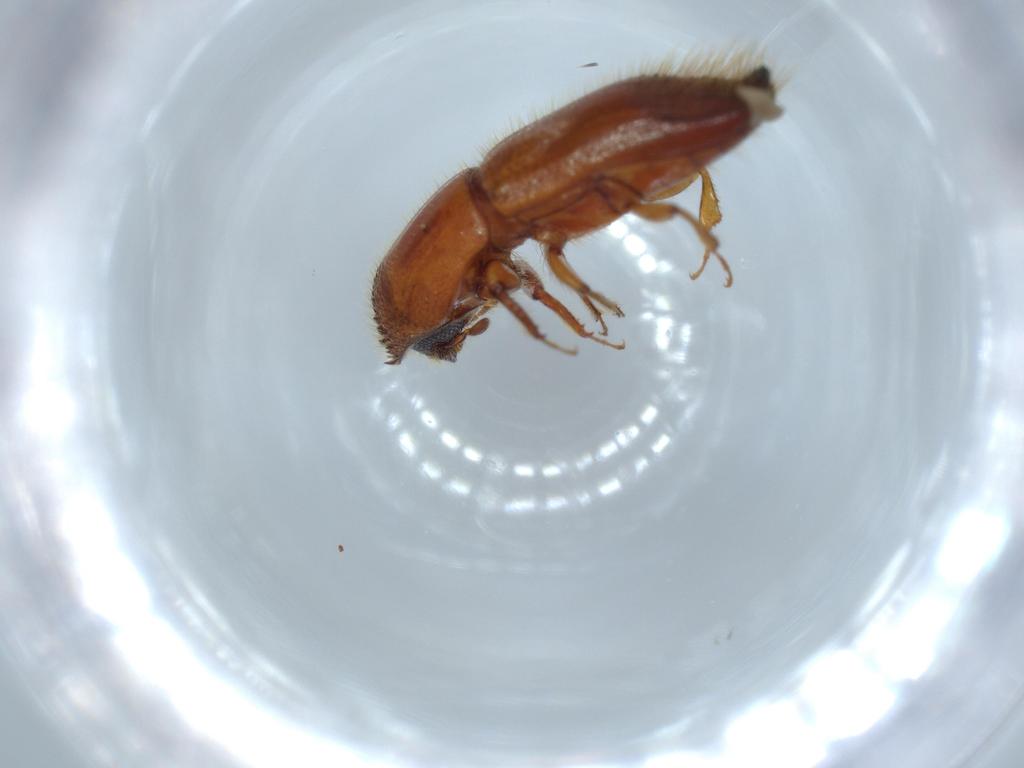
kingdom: Animalia
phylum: Arthropoda
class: Insecta
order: Coleoptera
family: Curculionidae
